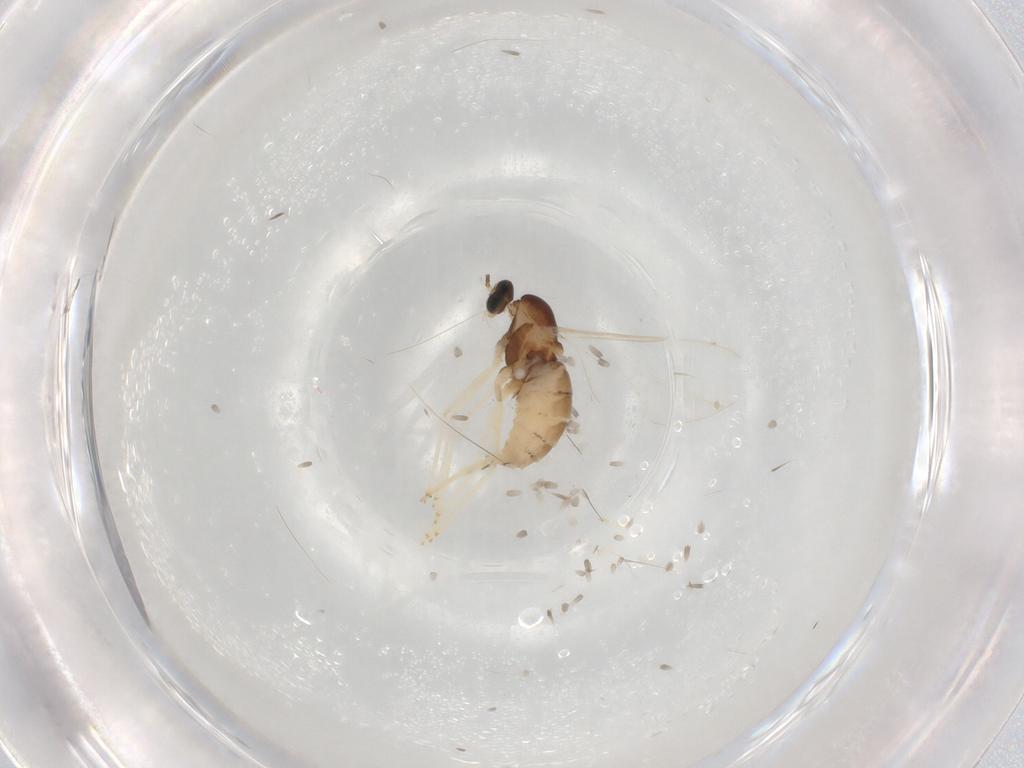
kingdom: Animalia
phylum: Arthropoda
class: Insecta
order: Diptera
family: Cecidomyiidae
